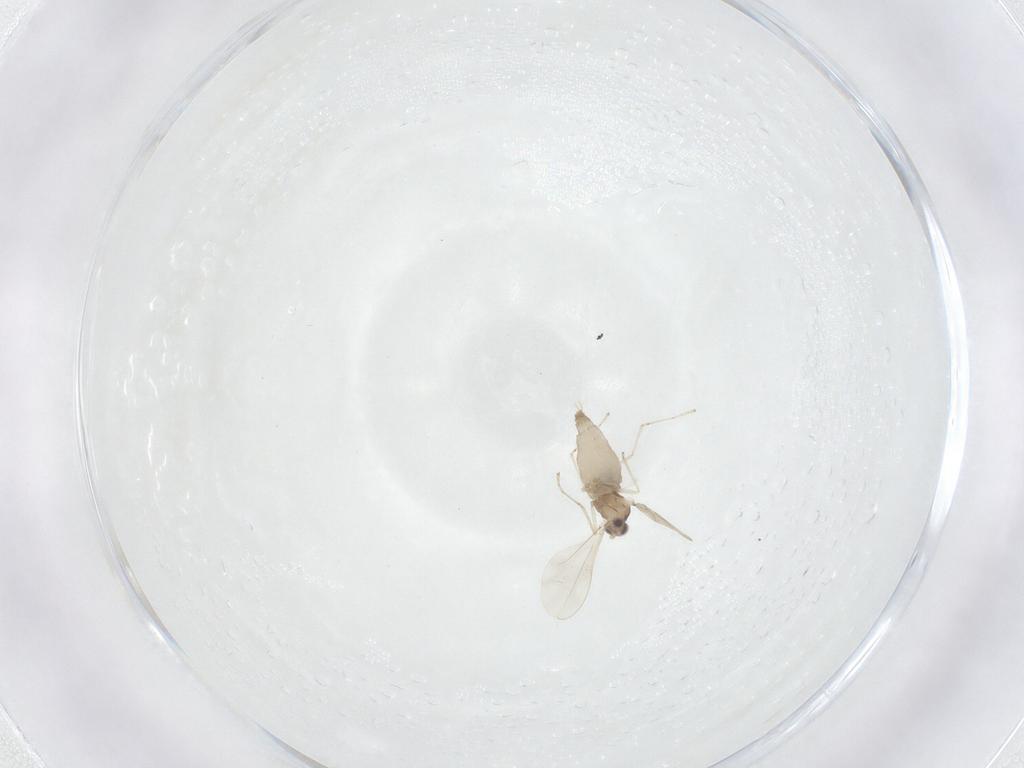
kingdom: Animalia
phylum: Arthropoda
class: Insecta
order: Diptera
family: Cecidomyiidae
